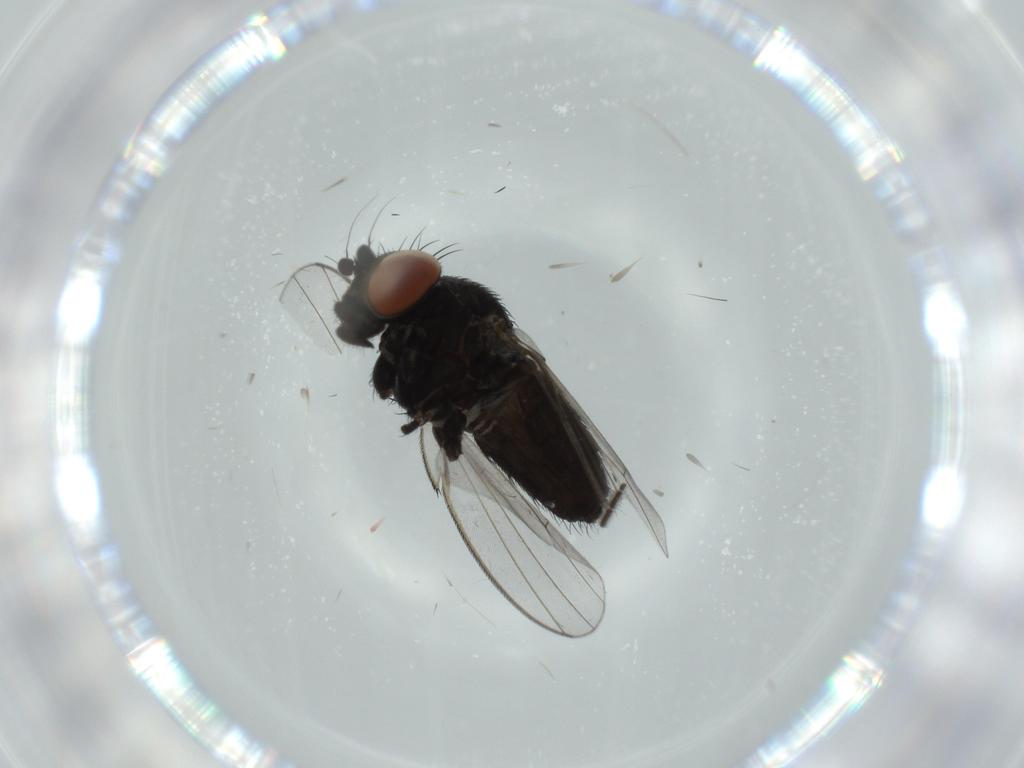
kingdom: Animalia
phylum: Arthropoda
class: Insecta
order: Diptera
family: Milichiidae
